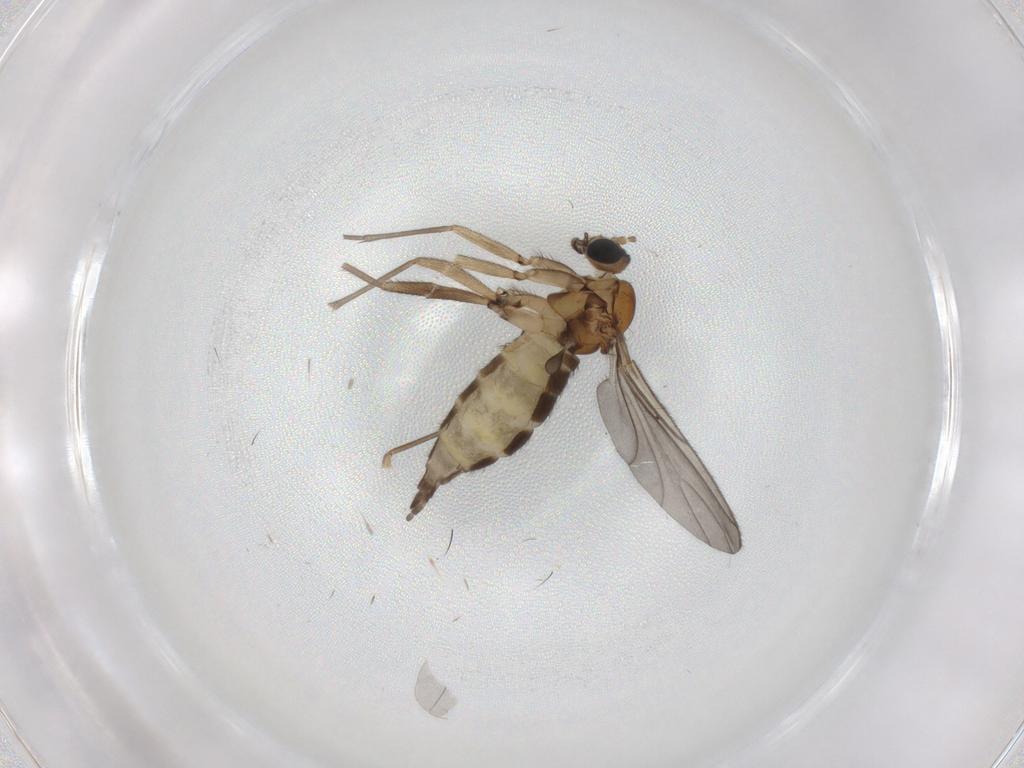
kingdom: Animalia
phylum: Arthropoda
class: Insecta
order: Diptera
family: Sciaridae
